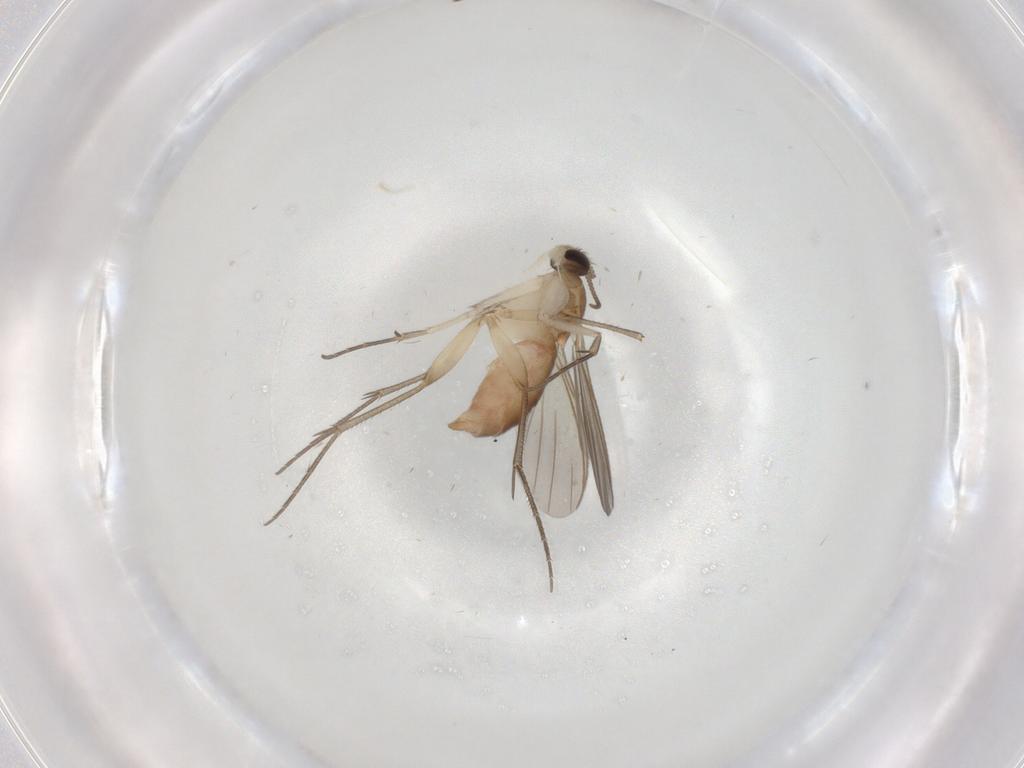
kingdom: Animalia
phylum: Arthropoda
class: Insecta
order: Diptera
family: Mycetophilidae
